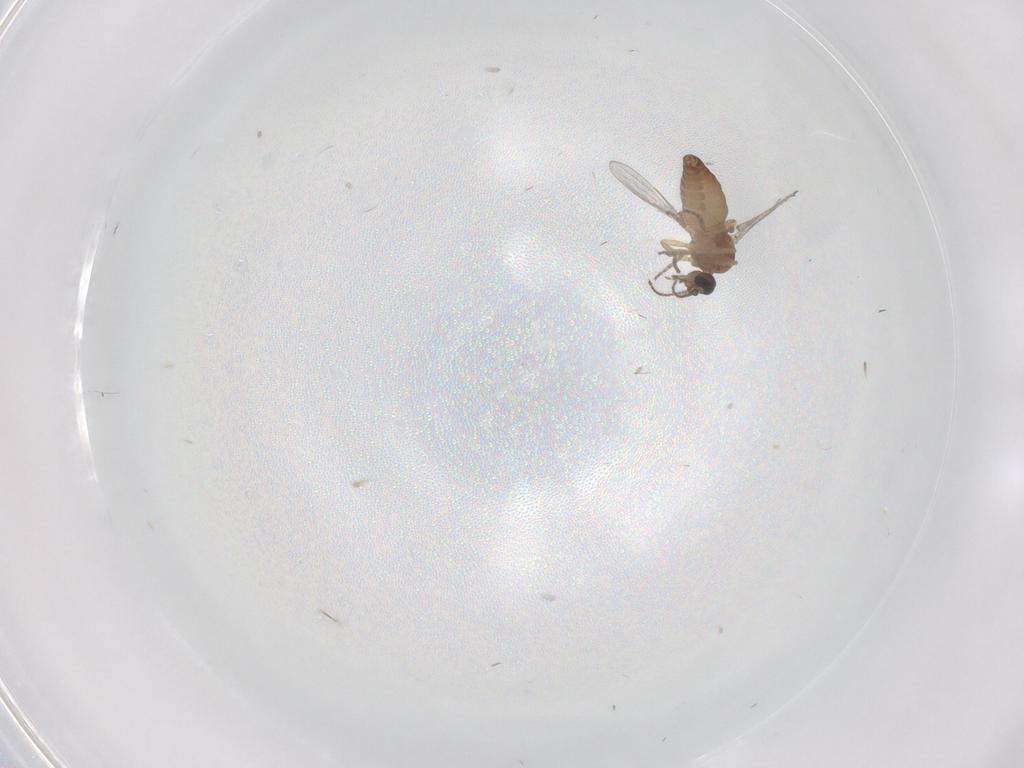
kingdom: Animalia
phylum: Arthropoda
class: Insecta
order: Diptera
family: Ceratopogonidae
